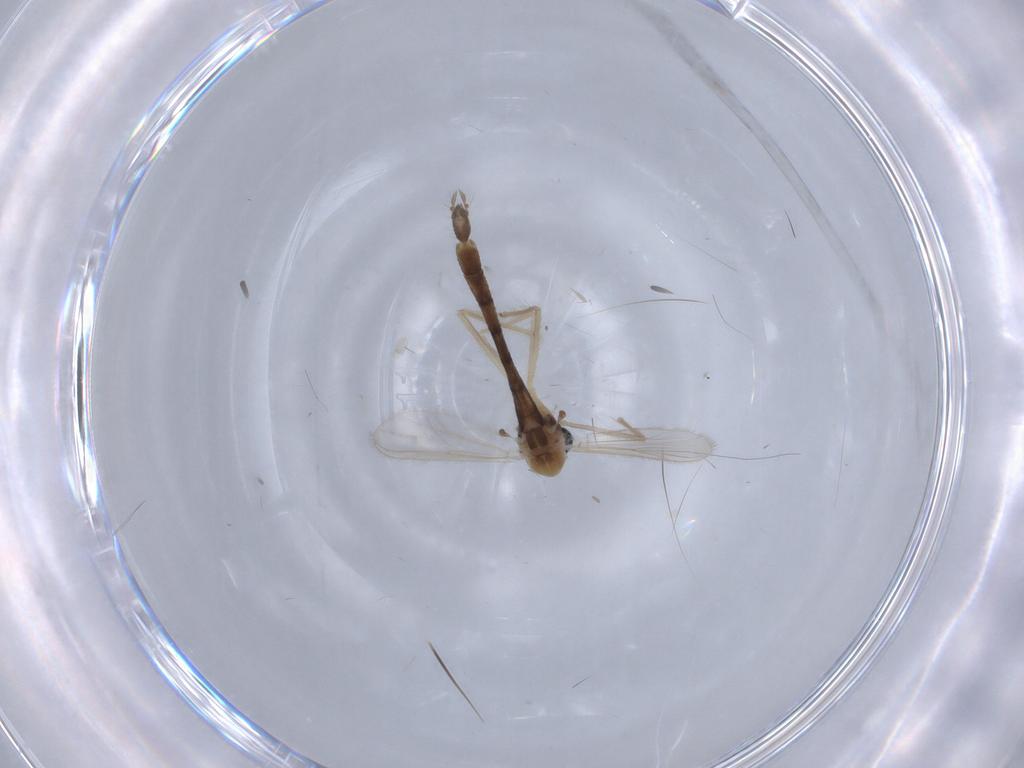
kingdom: Animalia
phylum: Arthropoda
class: Insecta
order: Diptera
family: Chironomidae
